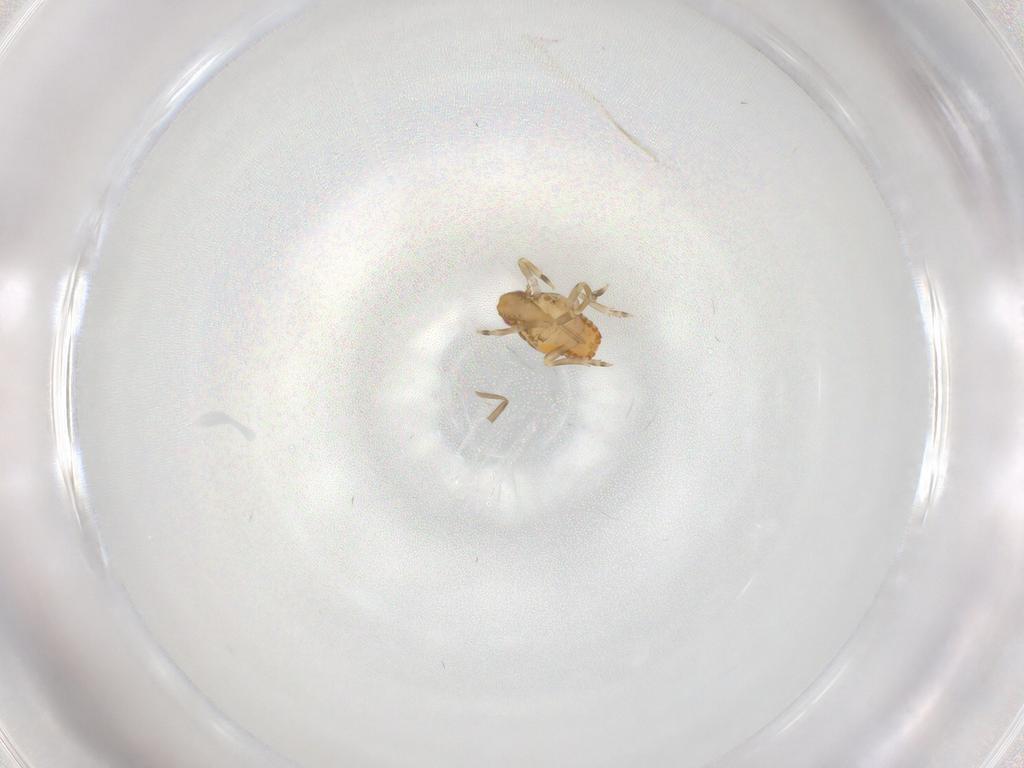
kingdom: Animalia
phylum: Arthropoda
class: Insecta
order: Hemiptera
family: Flatidae
